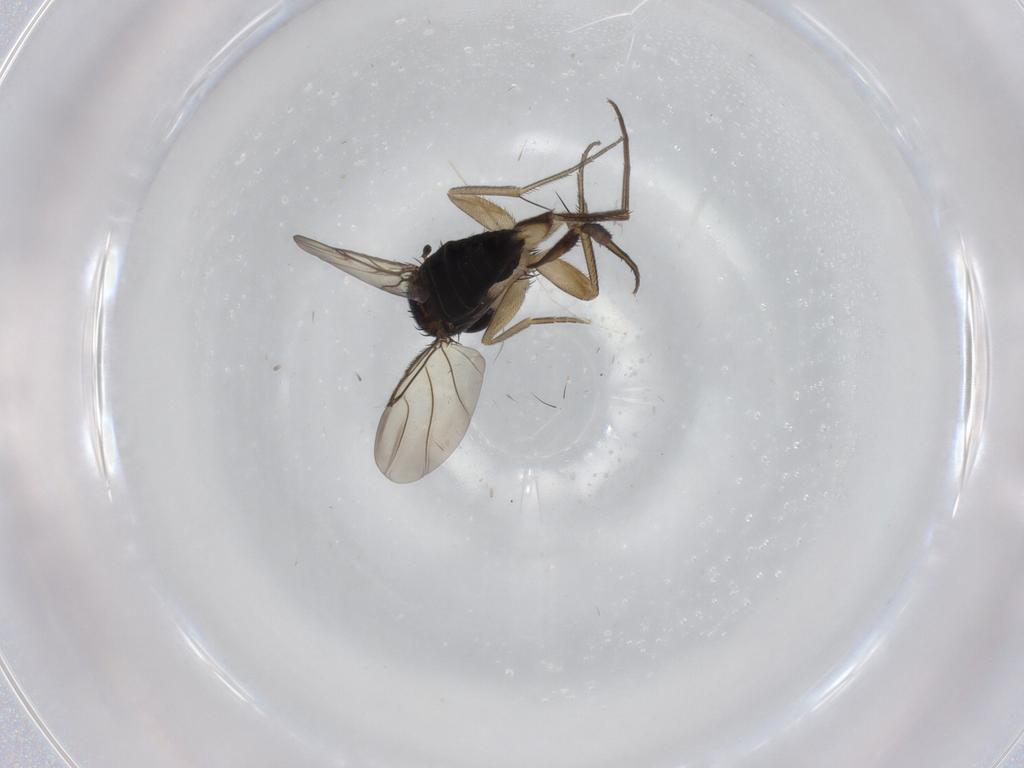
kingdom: Animalia
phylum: Arthropoda
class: Insecta
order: Diptera
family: Phoridae
